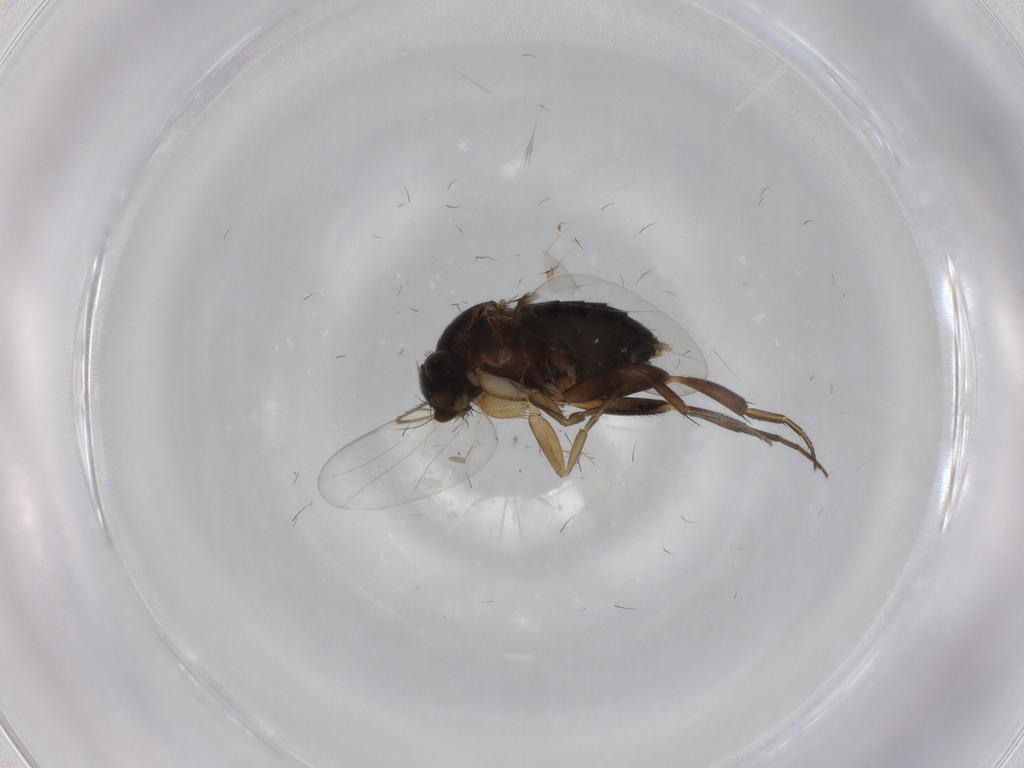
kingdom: Animalia
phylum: Arthropoda
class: Insecta
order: Diptera
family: Phoridae
